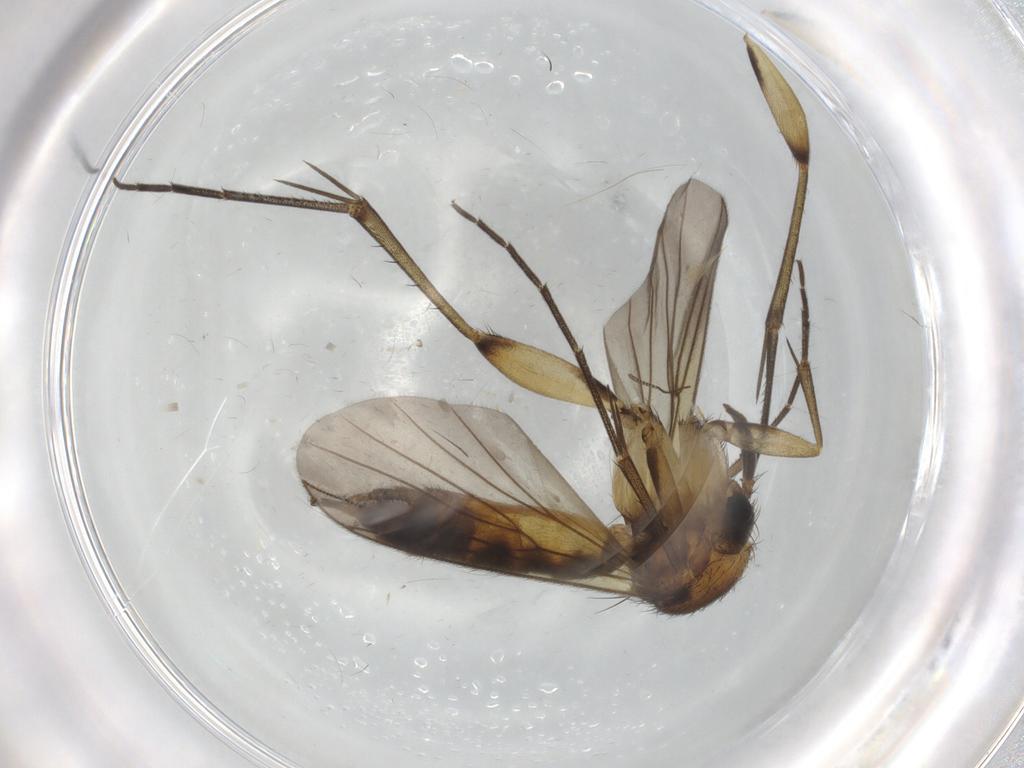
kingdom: Animalia
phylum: Arthropoda
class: Insecta
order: Diptera
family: Mycetophilidae
